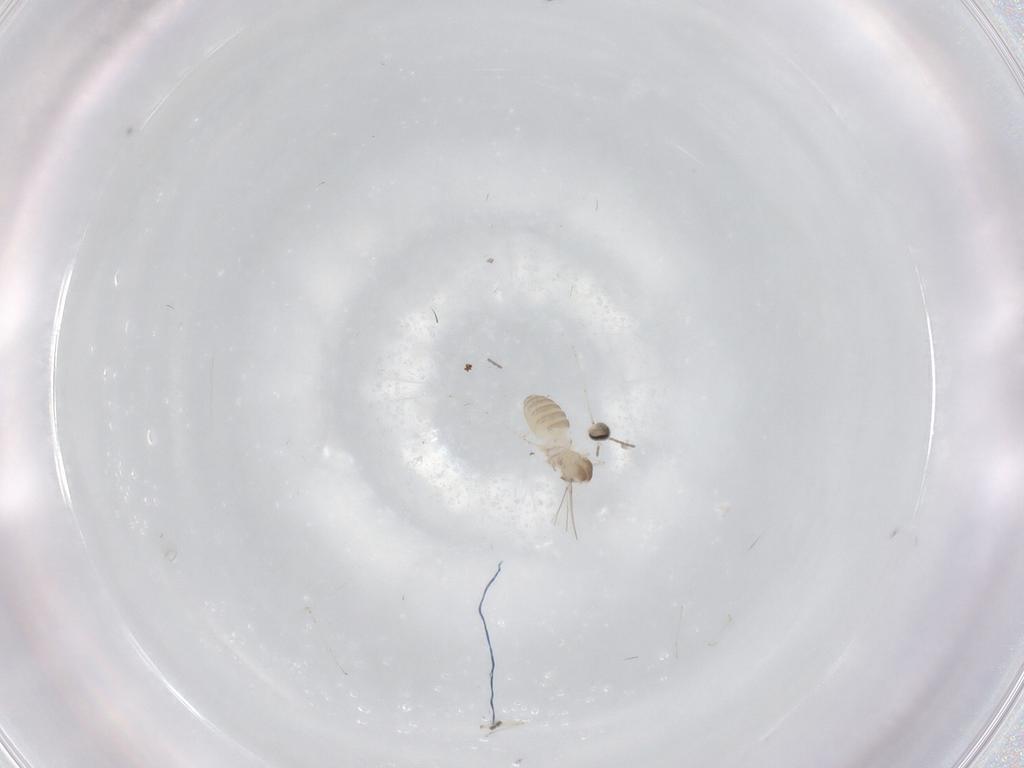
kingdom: Animalia
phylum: Arthropoda
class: Insecta
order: Diptera
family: Cecidomyiidae
